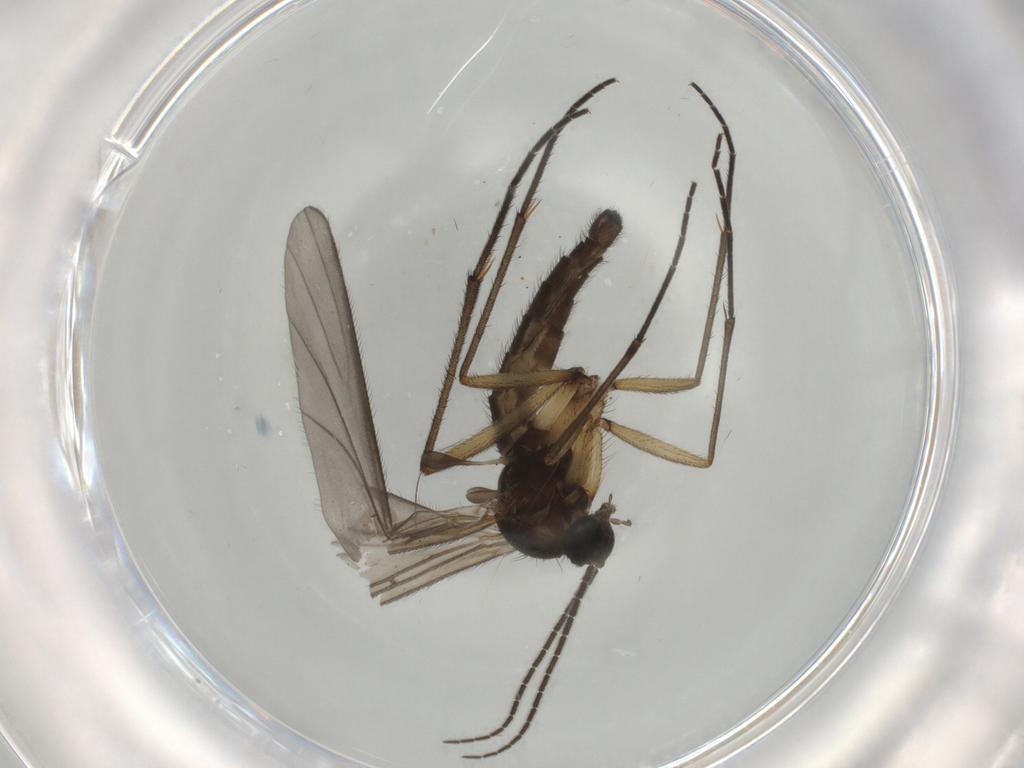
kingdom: Animalia
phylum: Arthropoda
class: Insecta
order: Diptera
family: Sciaridae
